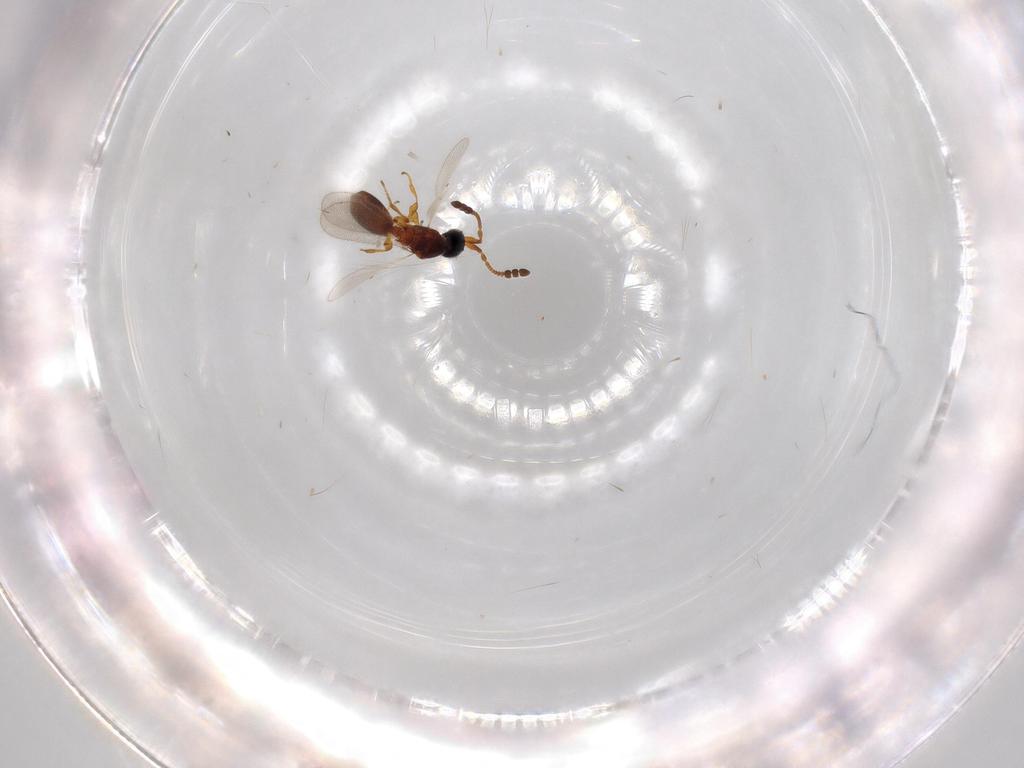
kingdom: Animalia
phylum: Arthropoda
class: Insecta
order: Hymenoptera
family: Diapriidae
